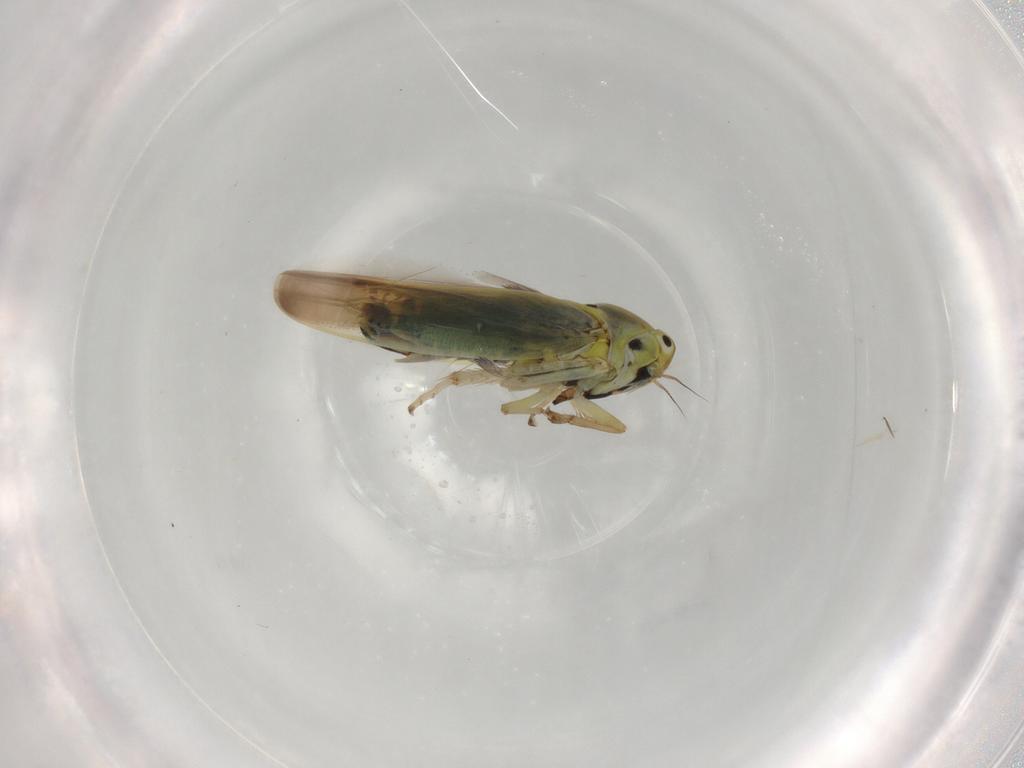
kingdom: Animalia
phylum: Arthropoda
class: Insecta
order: Hemiptera
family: Cicadellidae
